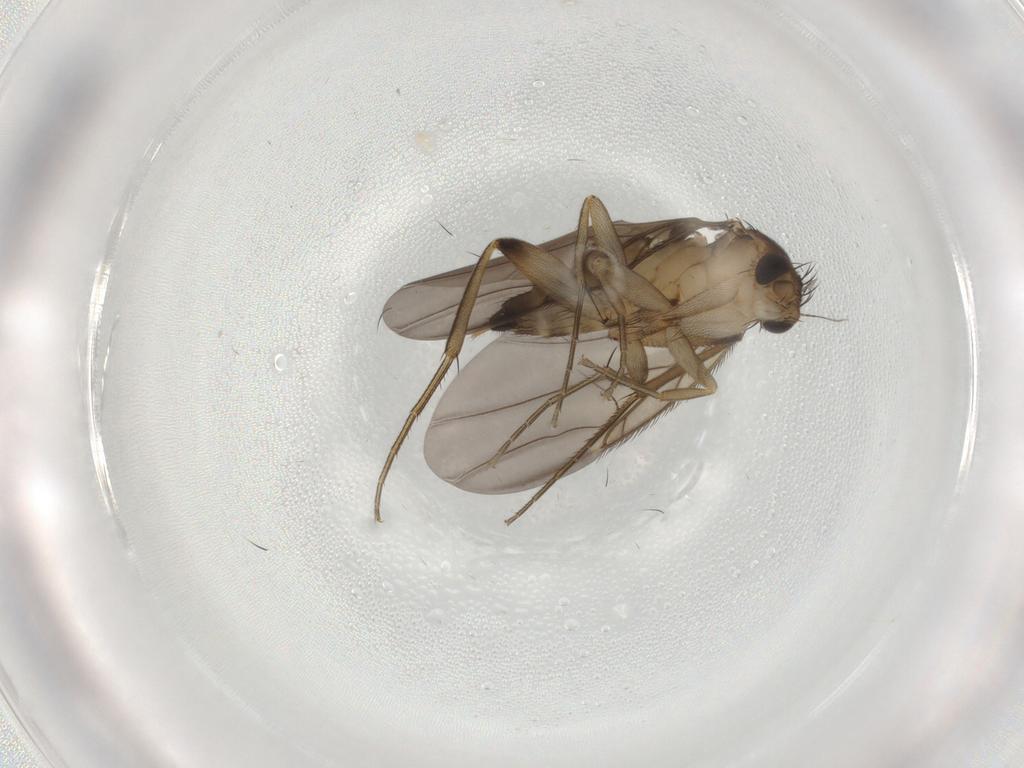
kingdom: Animalia
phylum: Arthropoda
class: Insecta
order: Diptera
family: Phoridae
